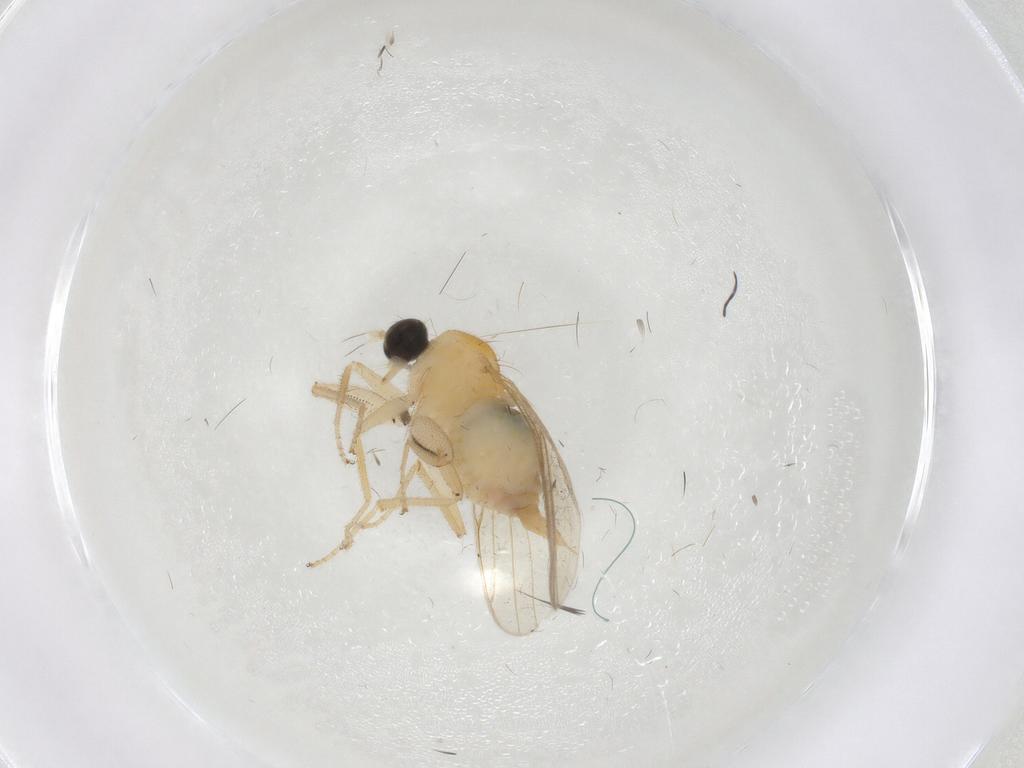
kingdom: Animalia
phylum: Arthropoda
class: Insecta
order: Diptera
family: Hybotidae
